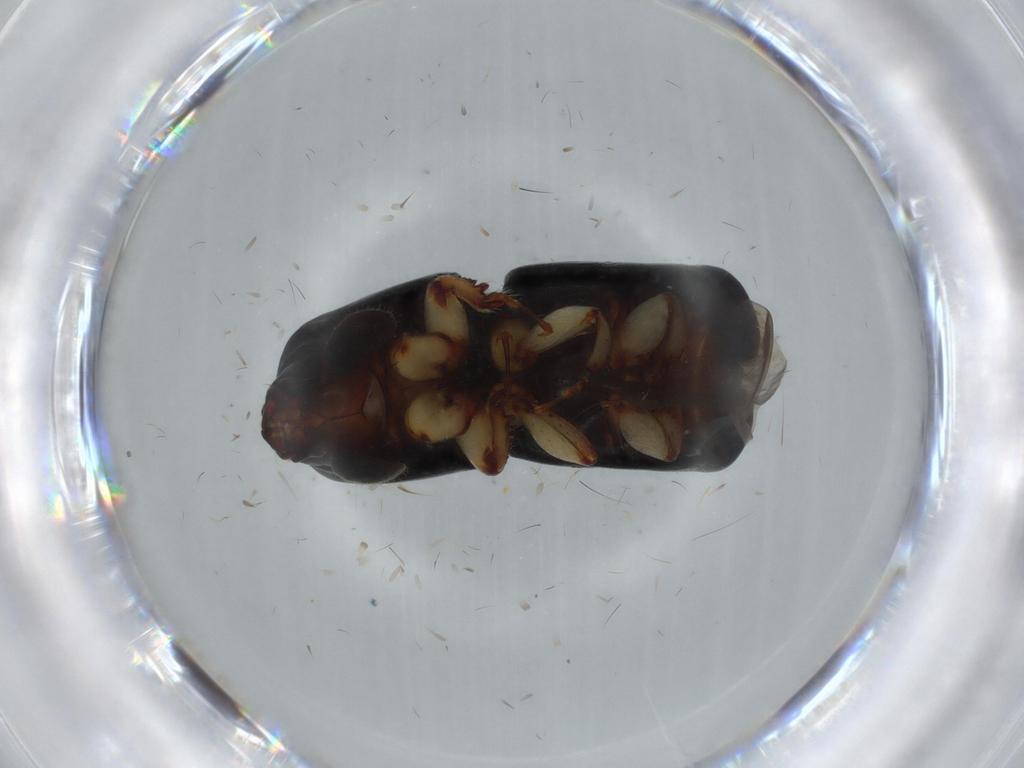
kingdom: Animalia
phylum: Arthropoda
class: Insecta
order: Coleoptera
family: Curculionidae
